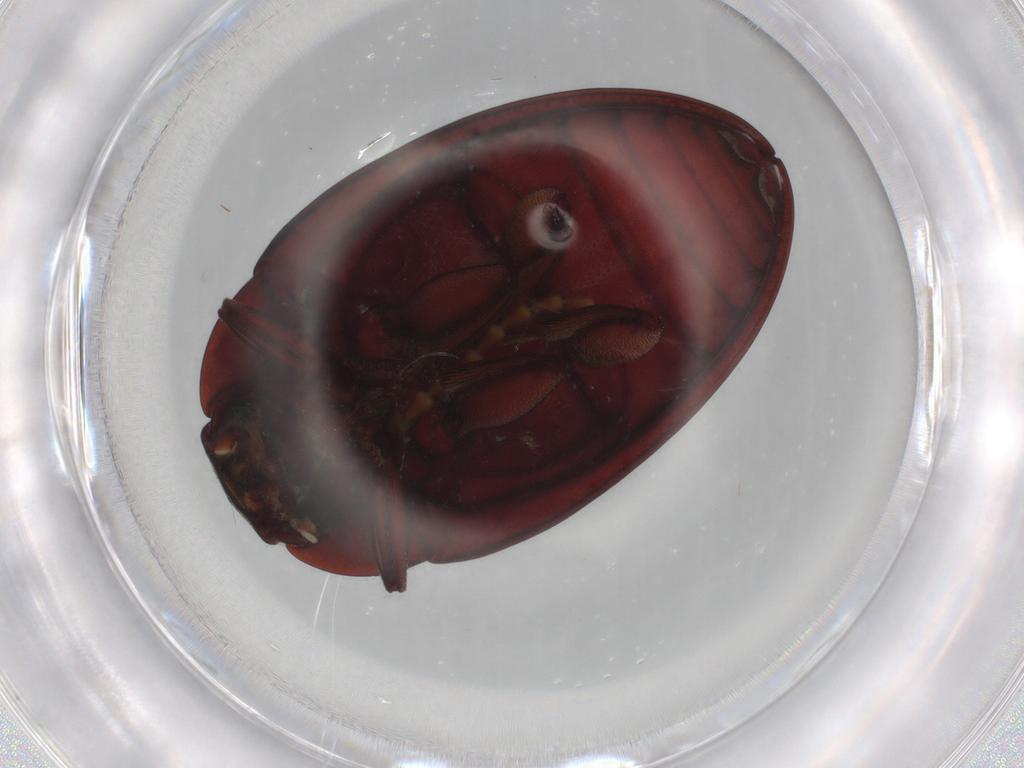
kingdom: Animalia
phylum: Arthropoda
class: Insecta
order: Coleoptera
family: Zopheridae
